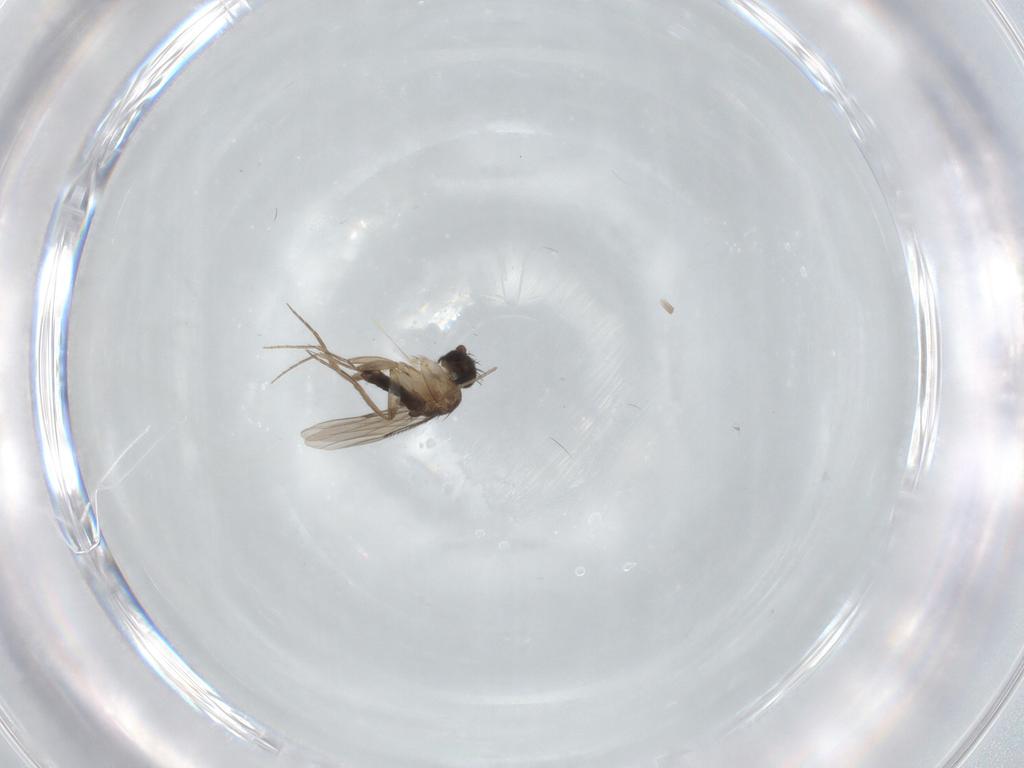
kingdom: Animalia
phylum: Arthropoda
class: Insecta
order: Diptera
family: Phoridae
